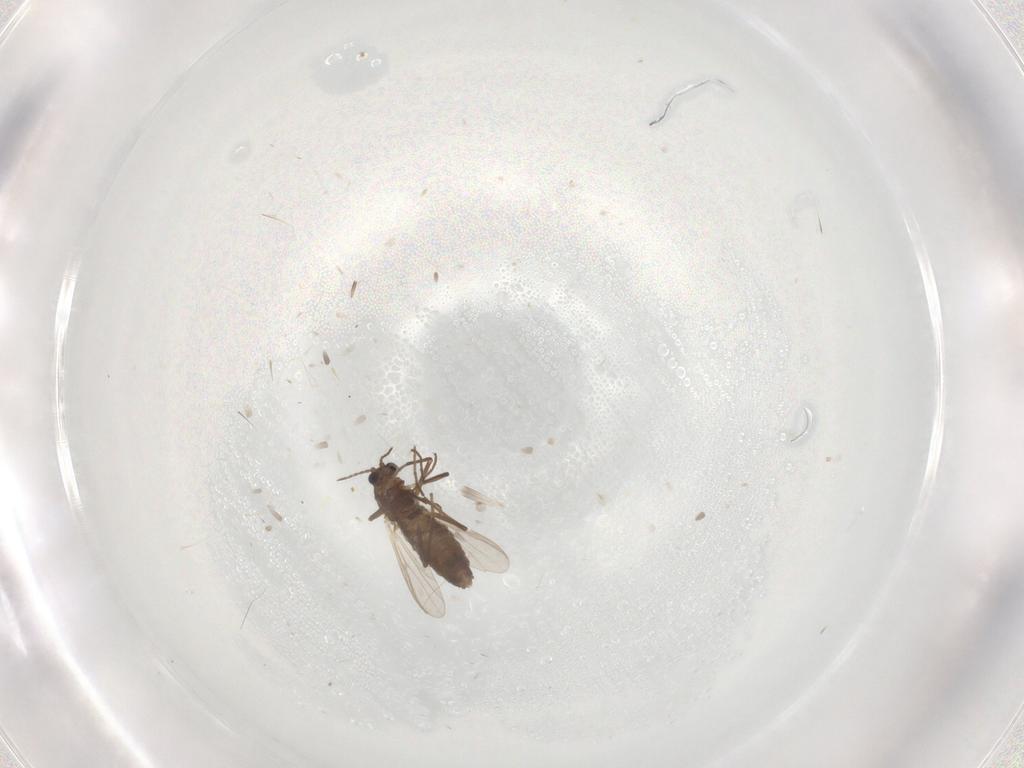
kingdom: Animalia
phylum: Arthropoda
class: Insecta
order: Diptera
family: Chironomidae
